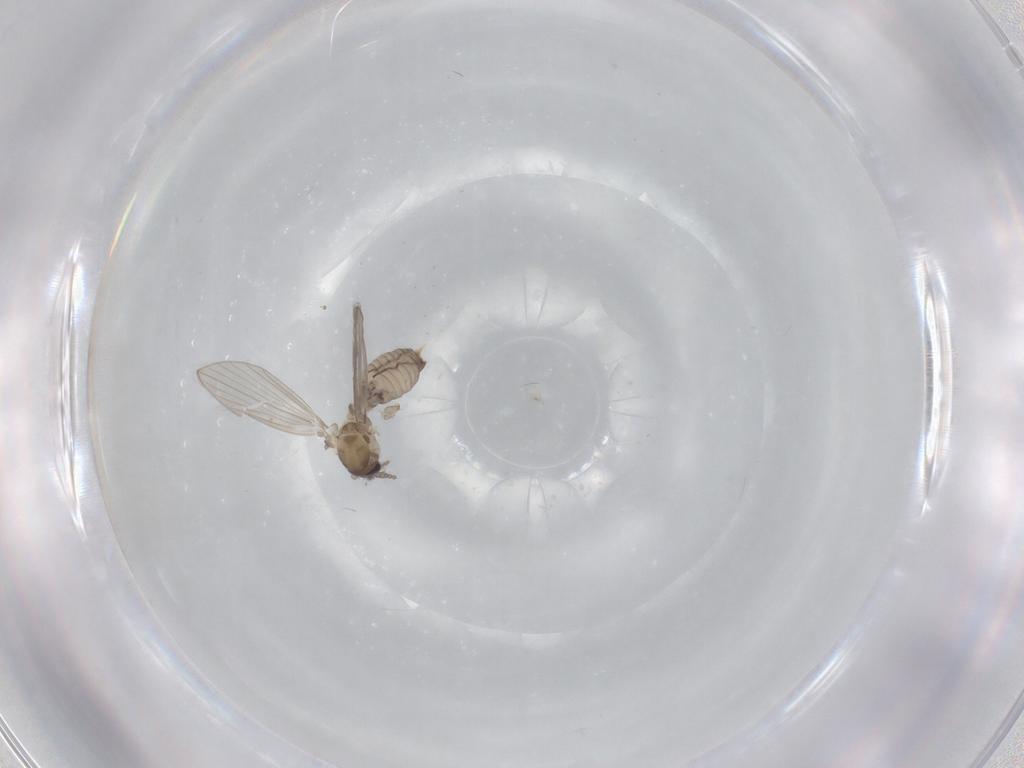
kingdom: Animalia
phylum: Arthropoda
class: Insecta
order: Diptera
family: Psychodidae
